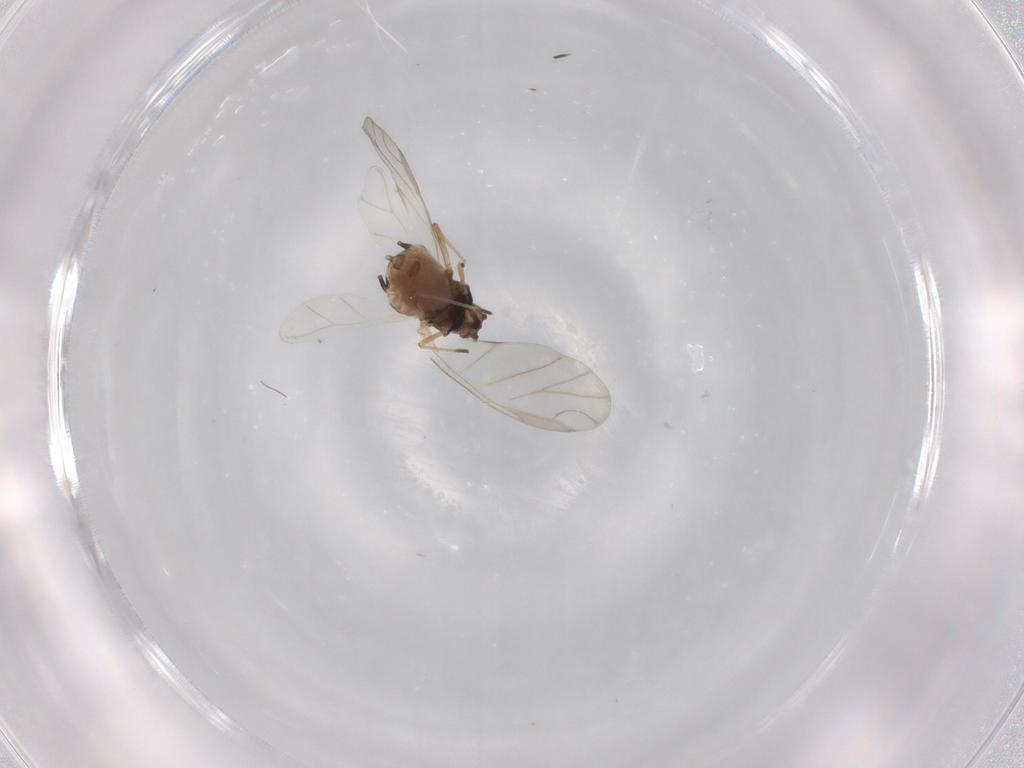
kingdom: Animalia
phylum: Arthropoda
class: Insecta
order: Hemiptera
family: Aphididae
